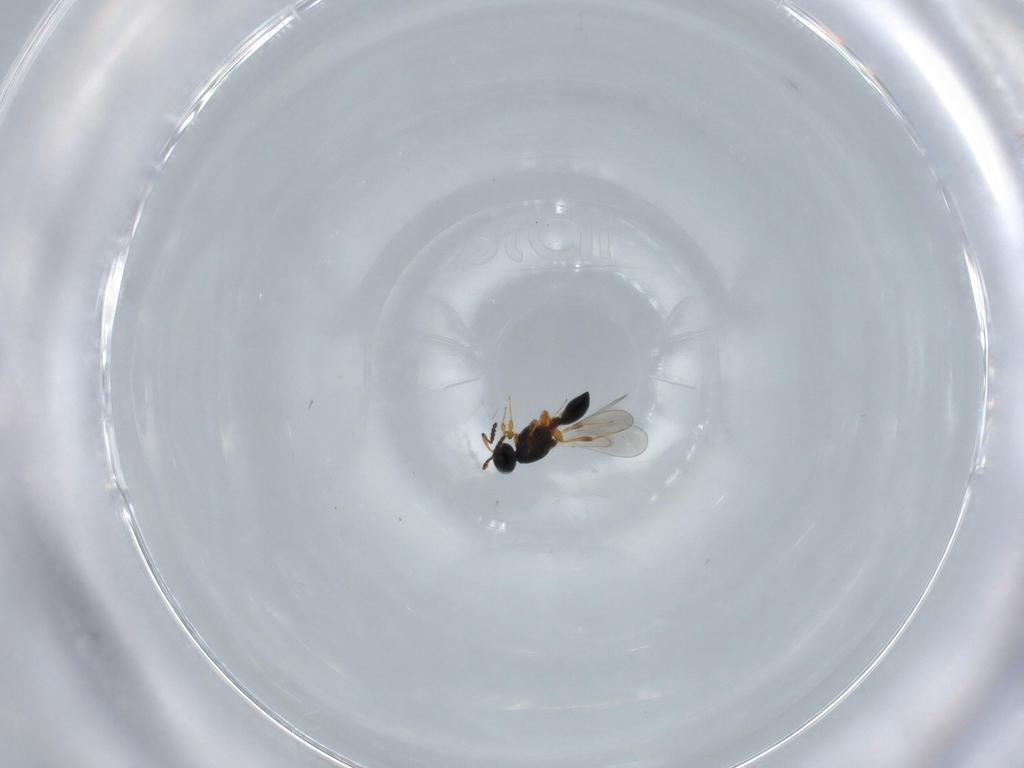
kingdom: Animalia
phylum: Arthropoda
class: Insecta
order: Hymenoptera
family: Platygastridae
